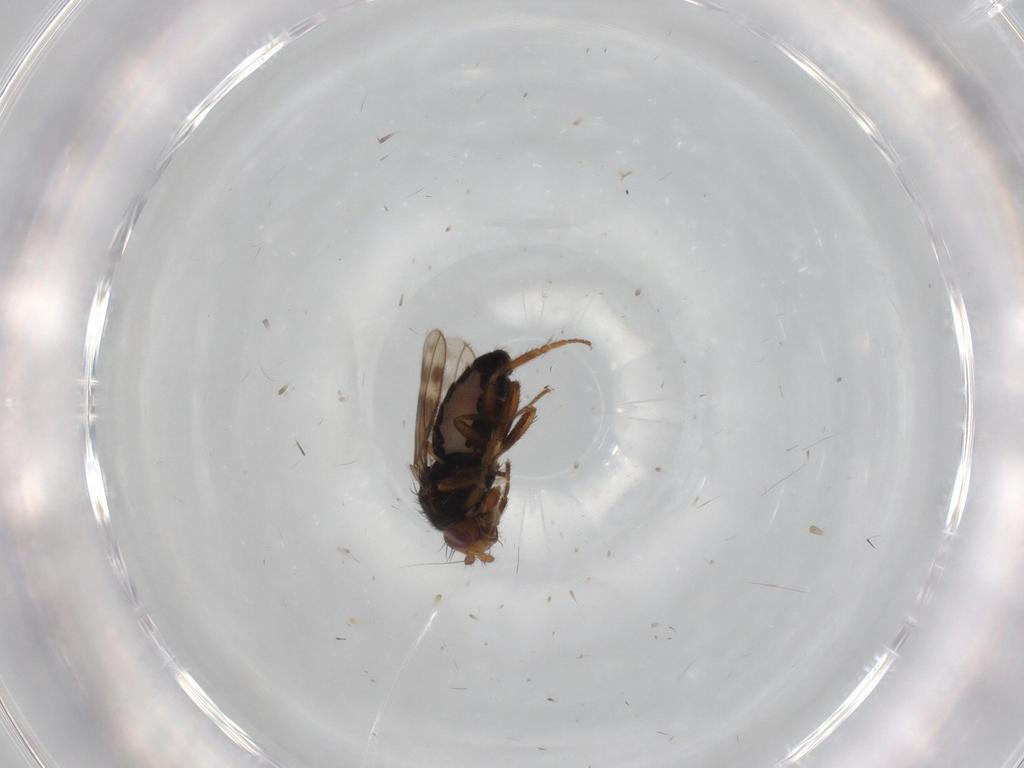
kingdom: Animalia
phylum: Arthropoda
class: Insecta
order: Diptera
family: Sphaeroceridae
